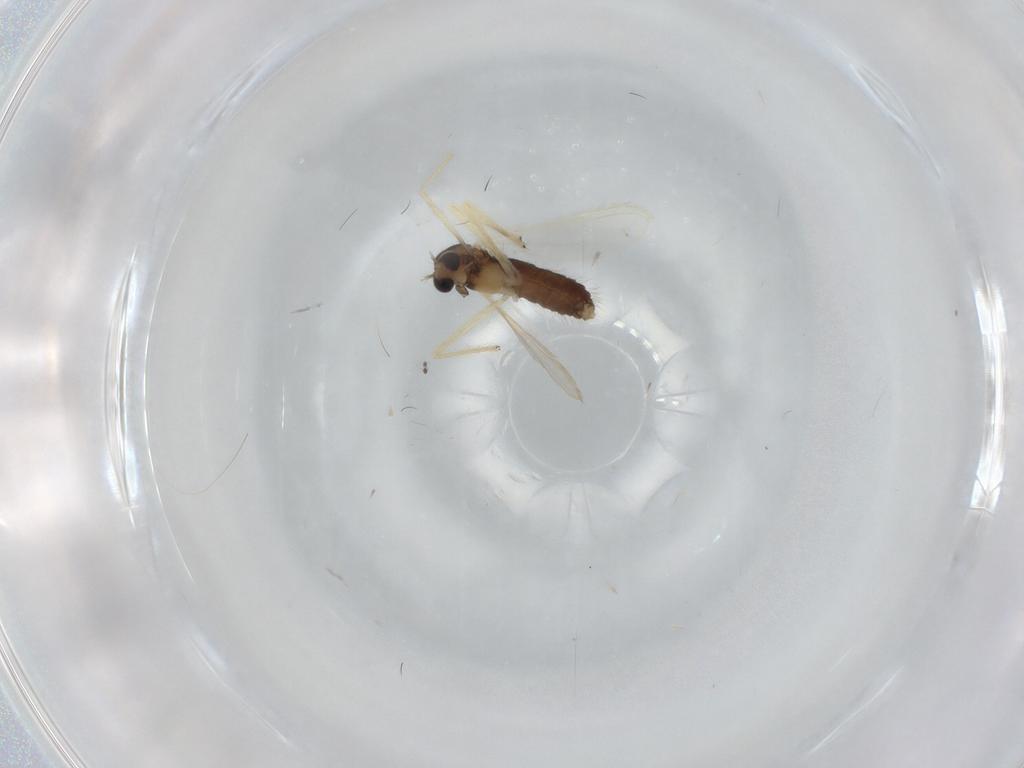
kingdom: Animalia
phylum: Arthropoda
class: Insecta
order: Diptera
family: Chironomidae
